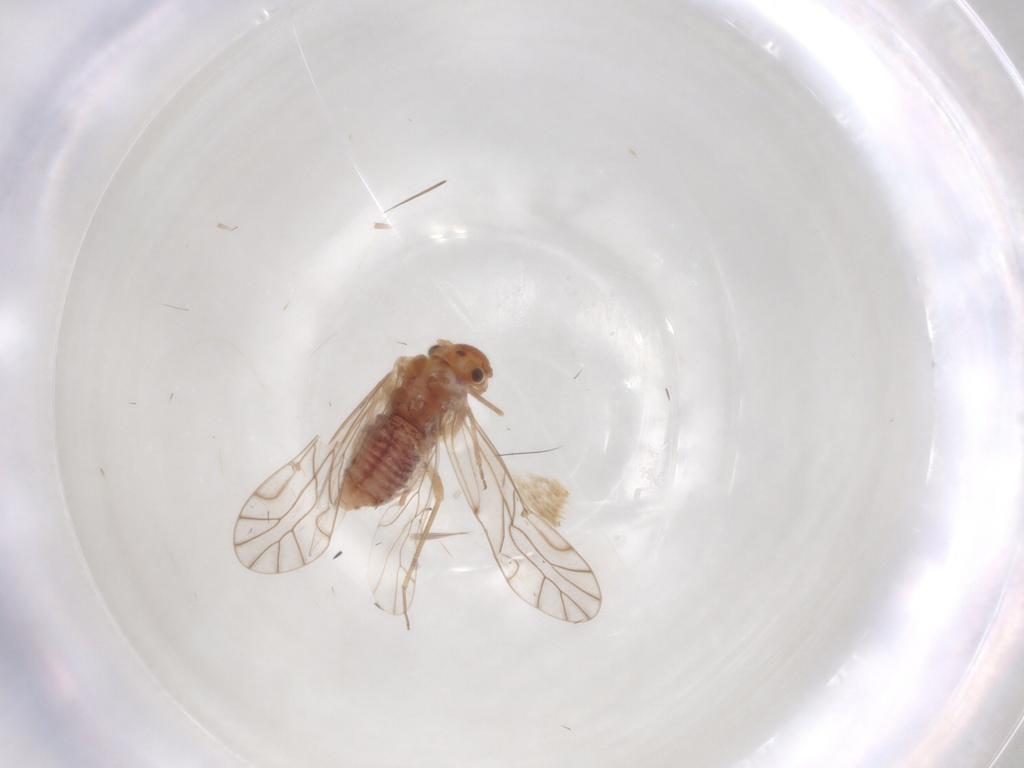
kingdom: Animalia
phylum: Arthropoda
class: Insecta
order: Psocodea
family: Lachesillidae
